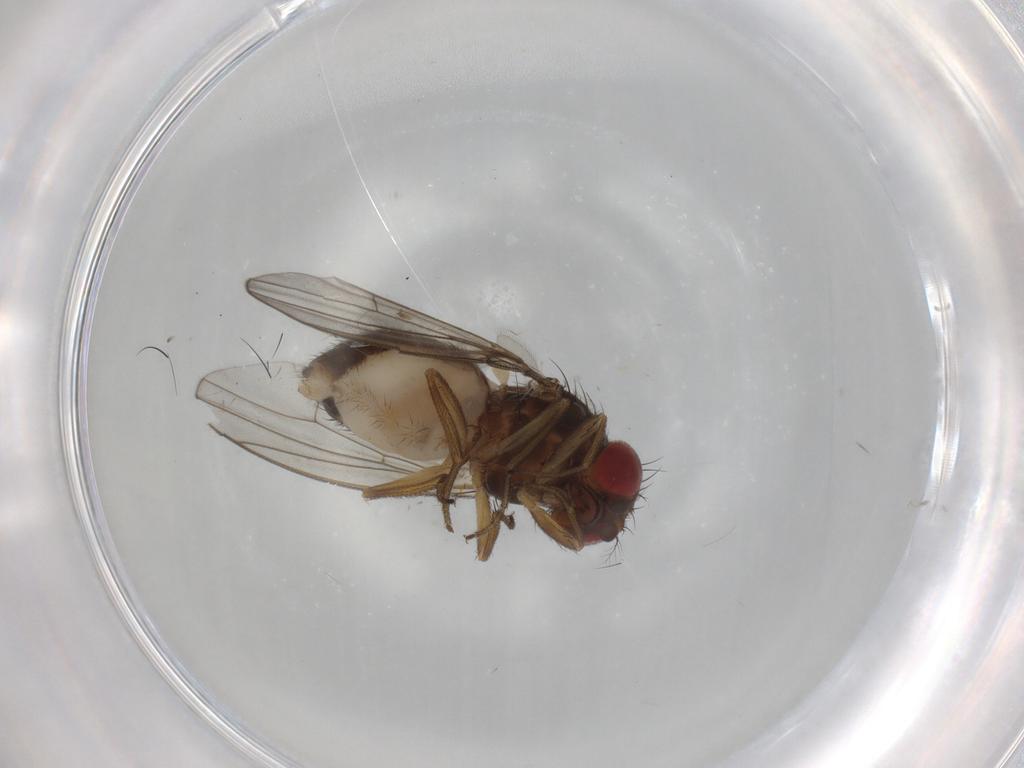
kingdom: Animalia
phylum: Arthropoda
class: Insecta
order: Diptera
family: Drosophilidae
